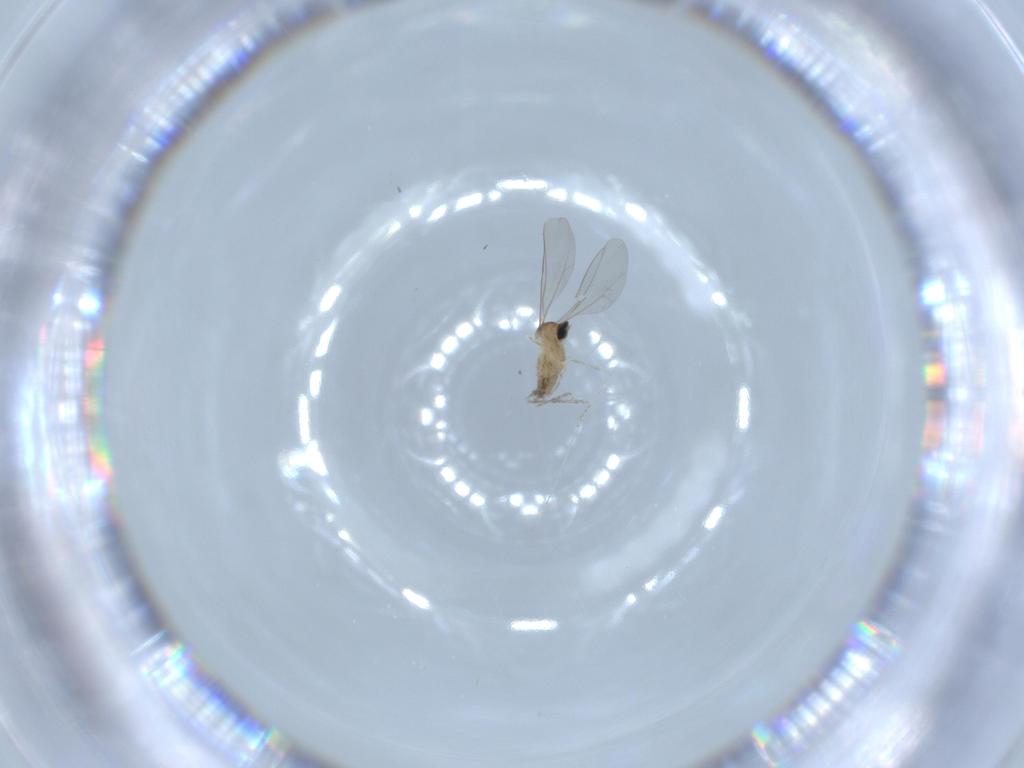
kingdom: Animalia
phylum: Arthropoda
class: Insecta
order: Diptera
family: Cecidomyiidae
